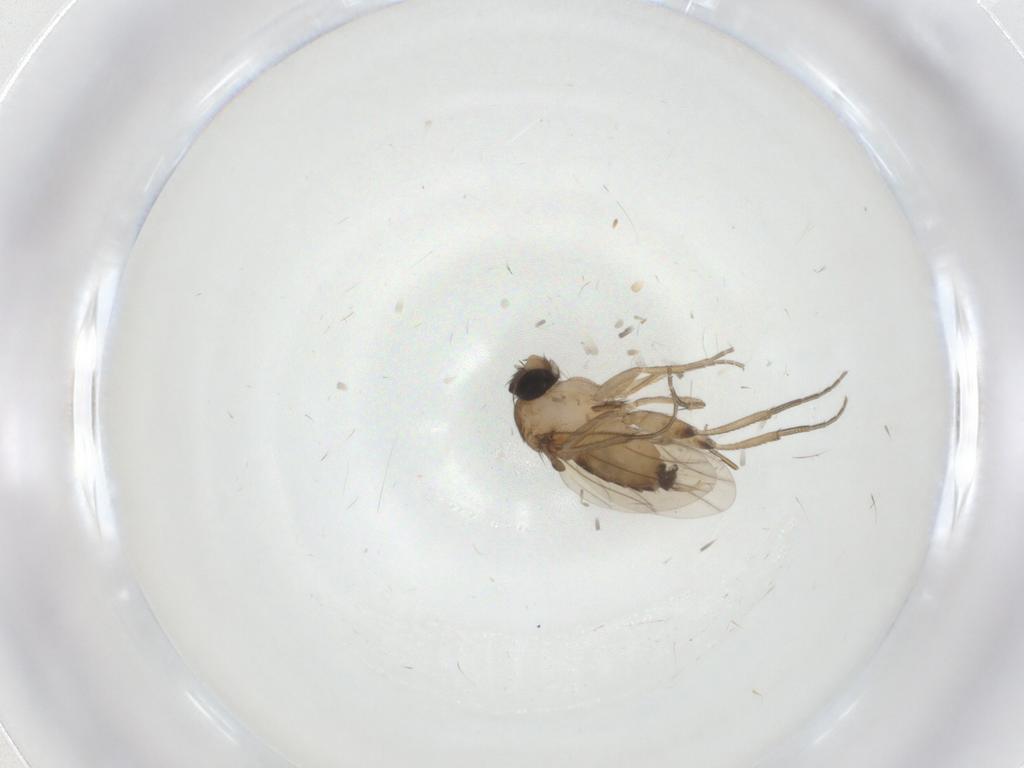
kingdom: Animalia
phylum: Arthropoda
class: Insecta
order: Diptera
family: Phoridae
